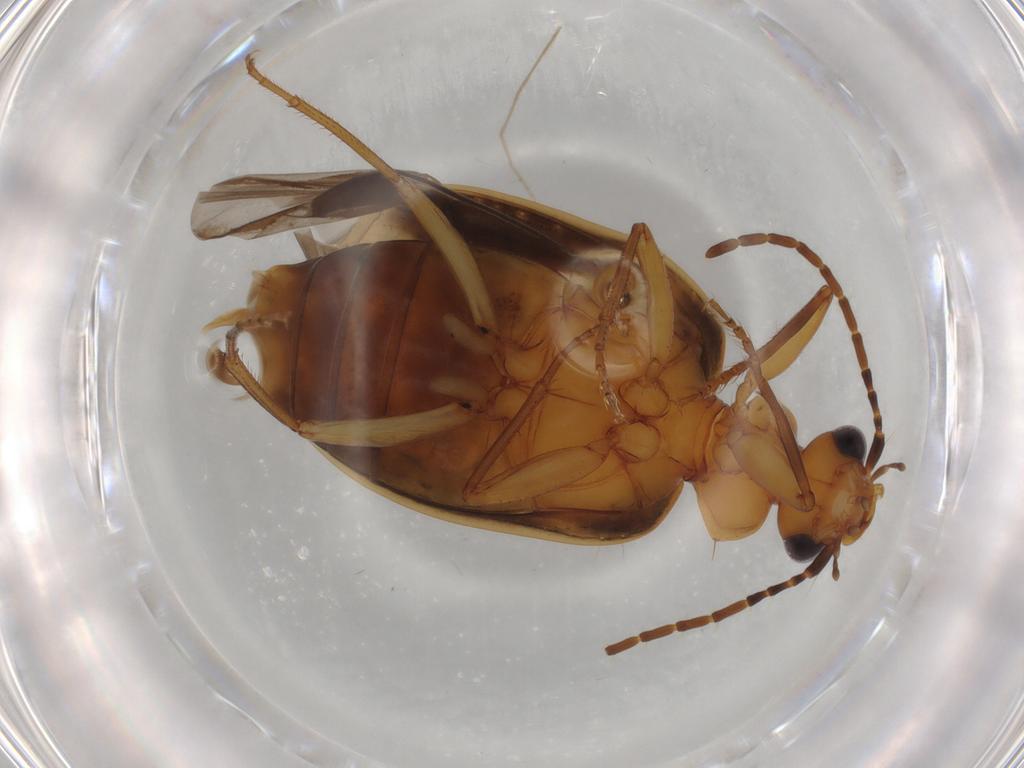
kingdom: Animalia
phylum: Arthropoda
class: Insecta
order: Coleoptera
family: Carabidae
